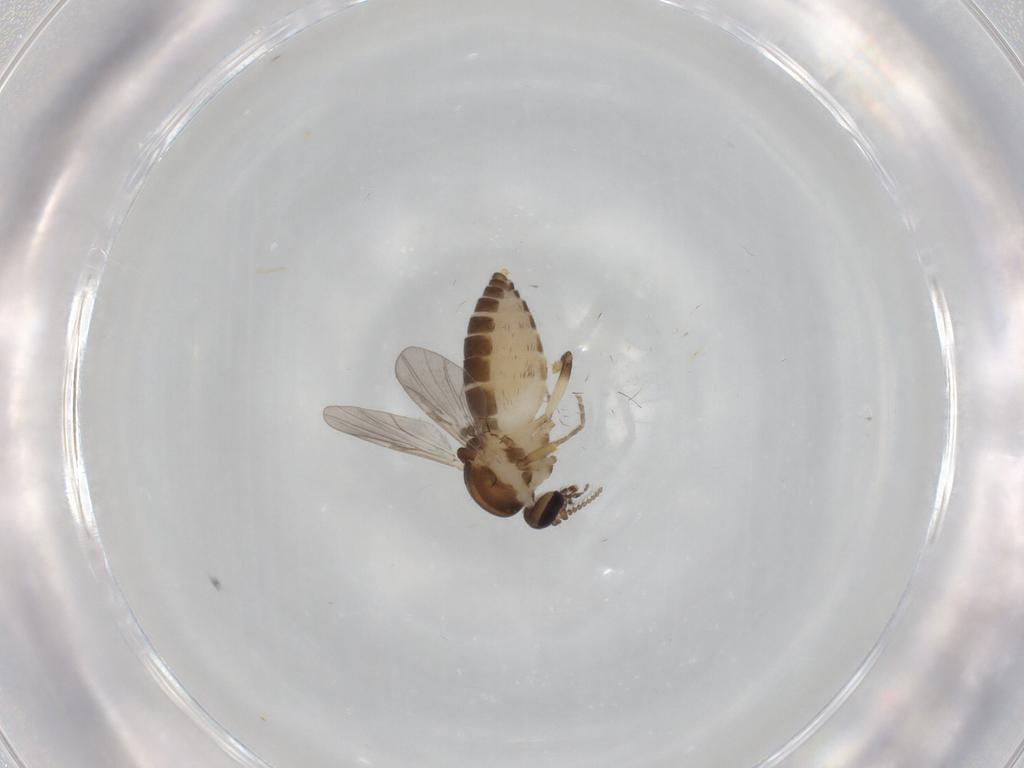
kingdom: Animalia
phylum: Arthropoda
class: Insecta
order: Diptera
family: Ceratopogonidae
